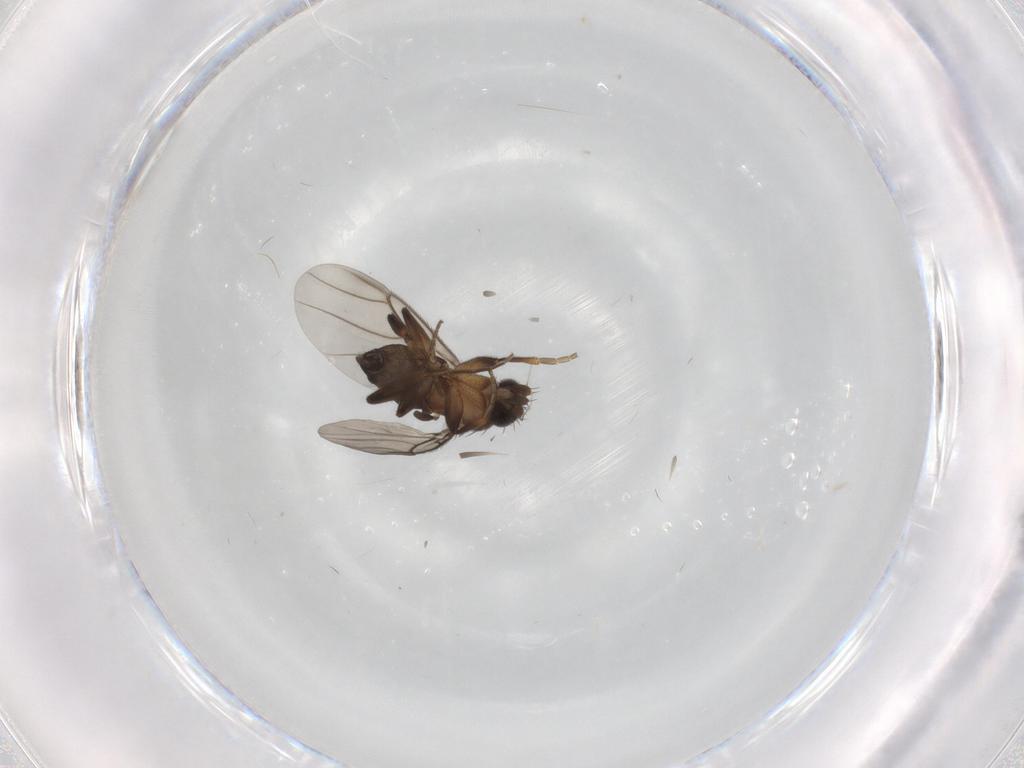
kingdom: Animalia
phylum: Arthropoda
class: Insecta
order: Diptera
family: Phoridae
